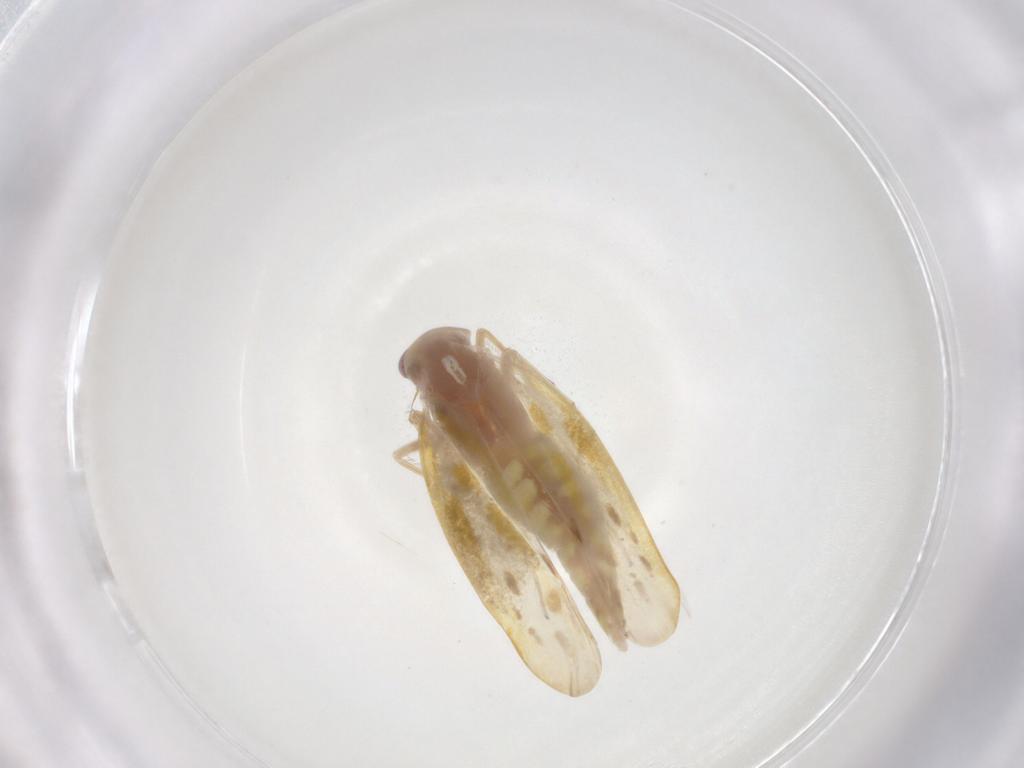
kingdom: Animalia
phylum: Arthropoda
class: Insecta
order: Hemiptera
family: Cicadellidae
